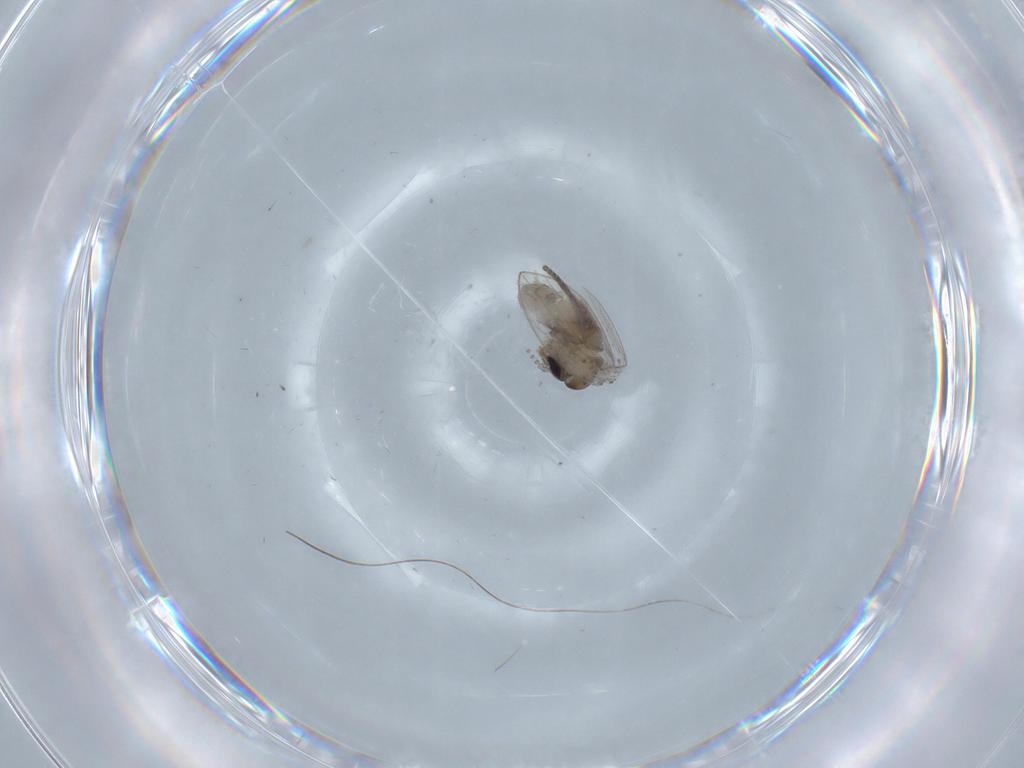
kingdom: Animalia
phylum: Arthropoda
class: Insecta
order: Diptera
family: Psychodidae
